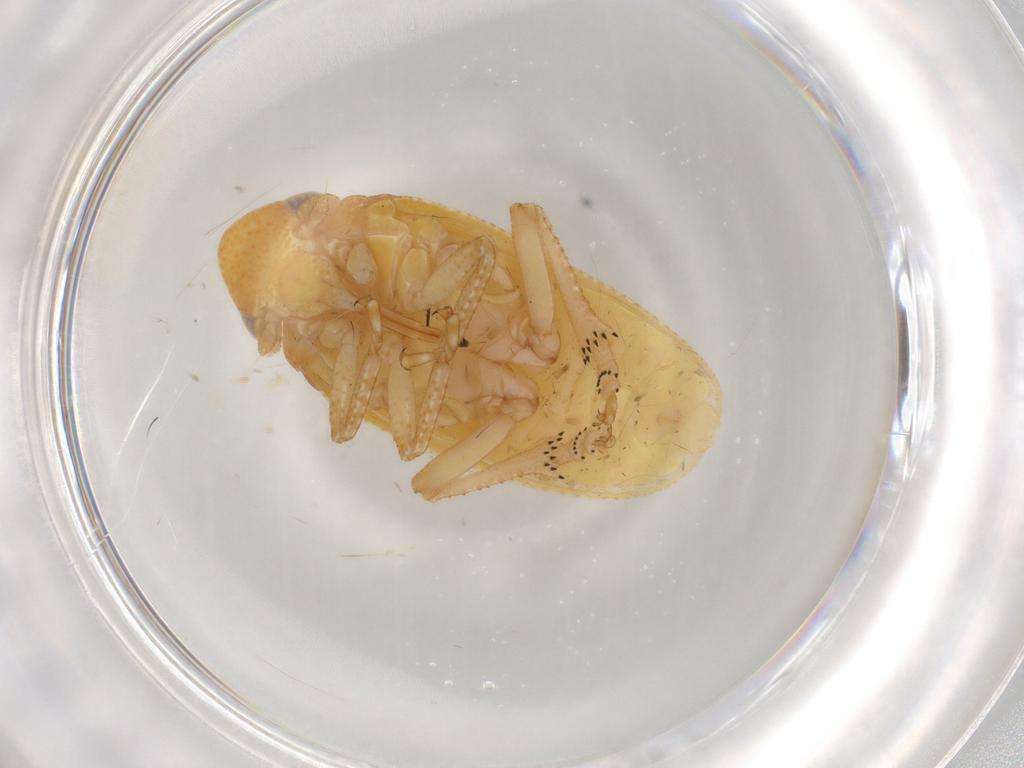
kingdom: Animalia
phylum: Arthropoda
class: Insecta
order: Hemiptera
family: Tettigometridae
